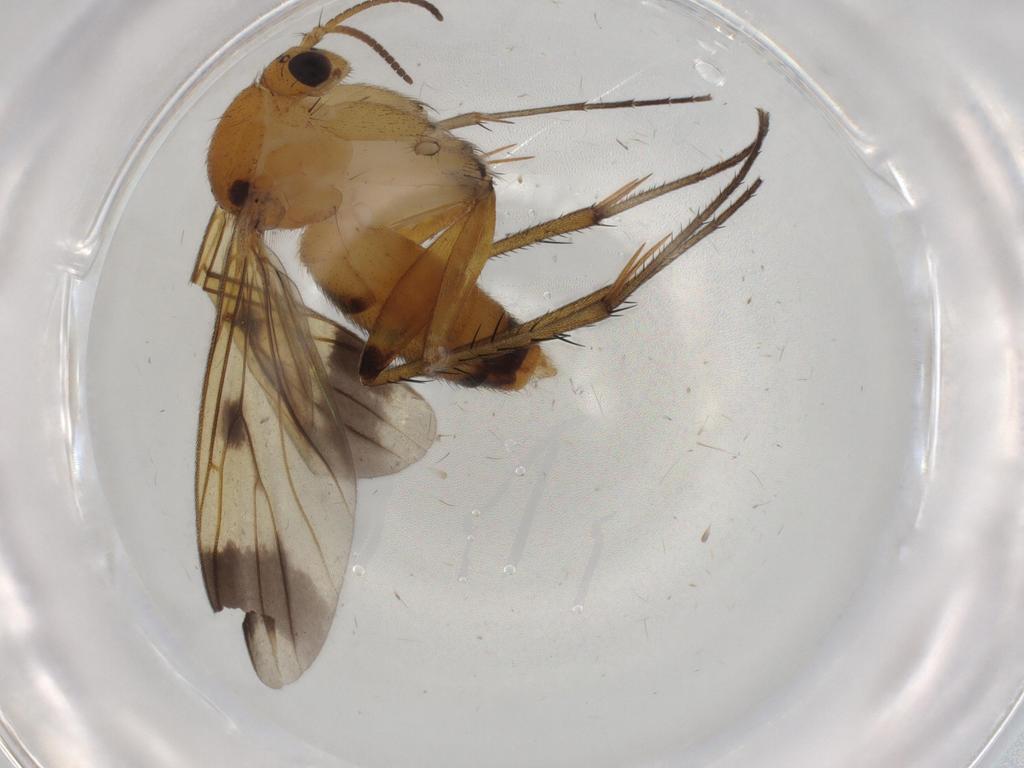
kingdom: Animalia
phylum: Arthropoda
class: Insecta
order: Diptera
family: Mycetophilidae
